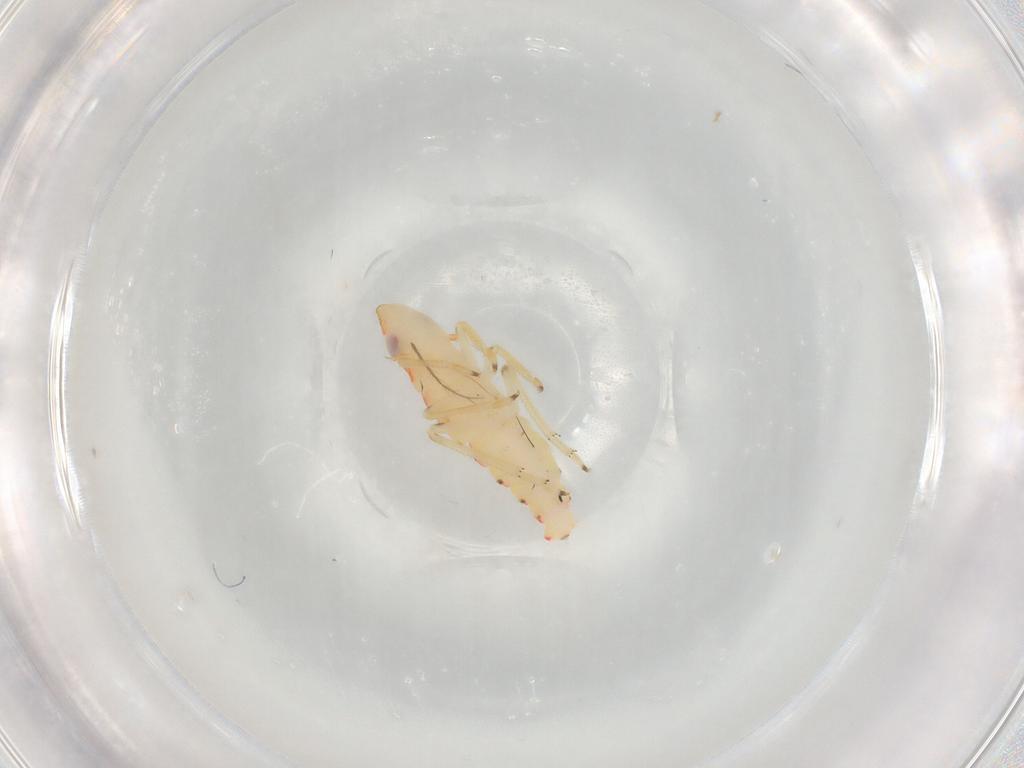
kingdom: Animalia
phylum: Arthropoda
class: Insecta
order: Hemiptera
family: Tropiduchidae
